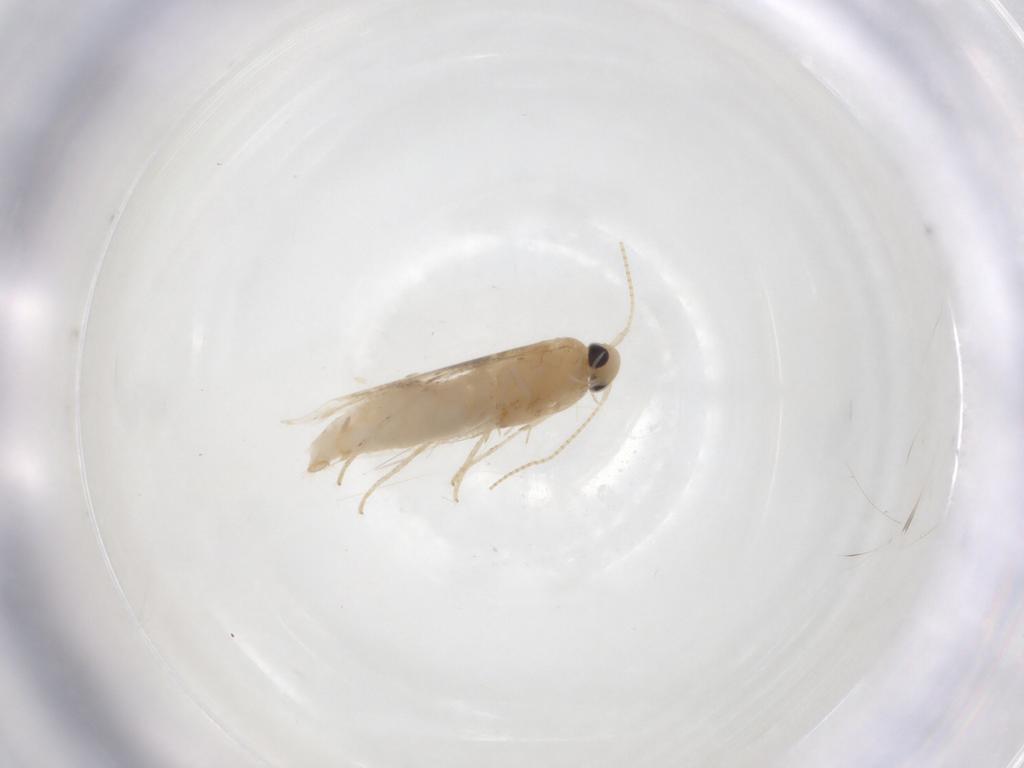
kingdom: Animalia
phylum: Arthropoda
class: Insecta
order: Lepidoptera
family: Gracillariidae
